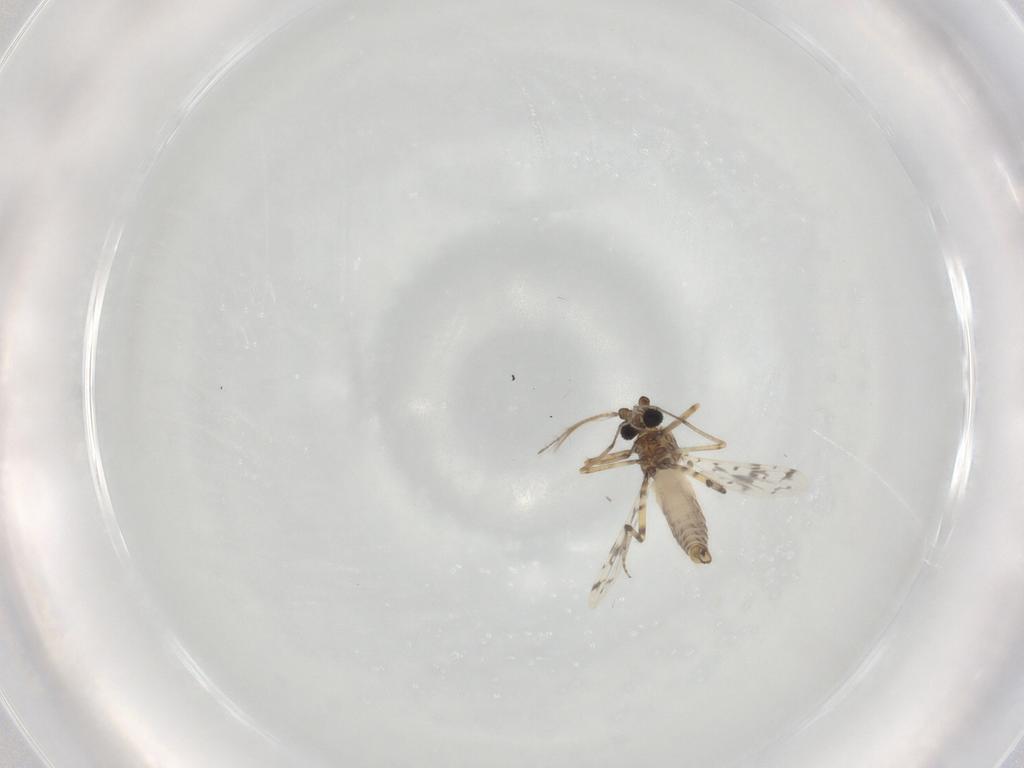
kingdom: Animalia
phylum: Arthropoda
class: Insecta
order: Diptera
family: Ceratopogonidae
